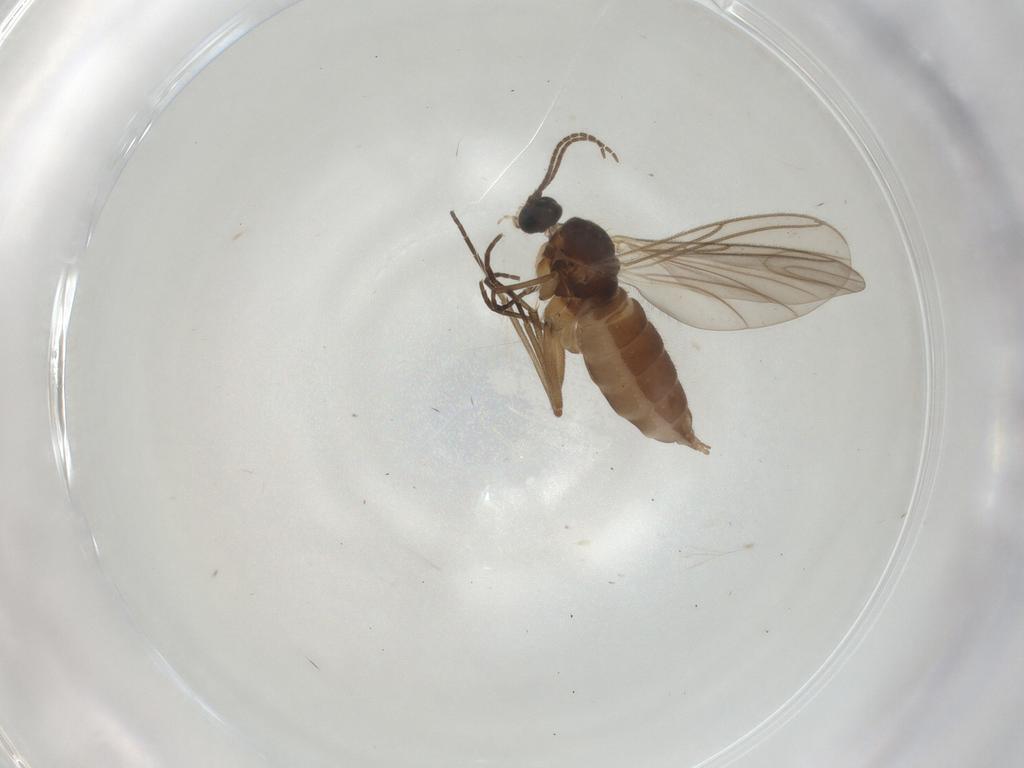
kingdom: Animalia
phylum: Arthropoda
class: Insecta
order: Diptera
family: Sciaridae
